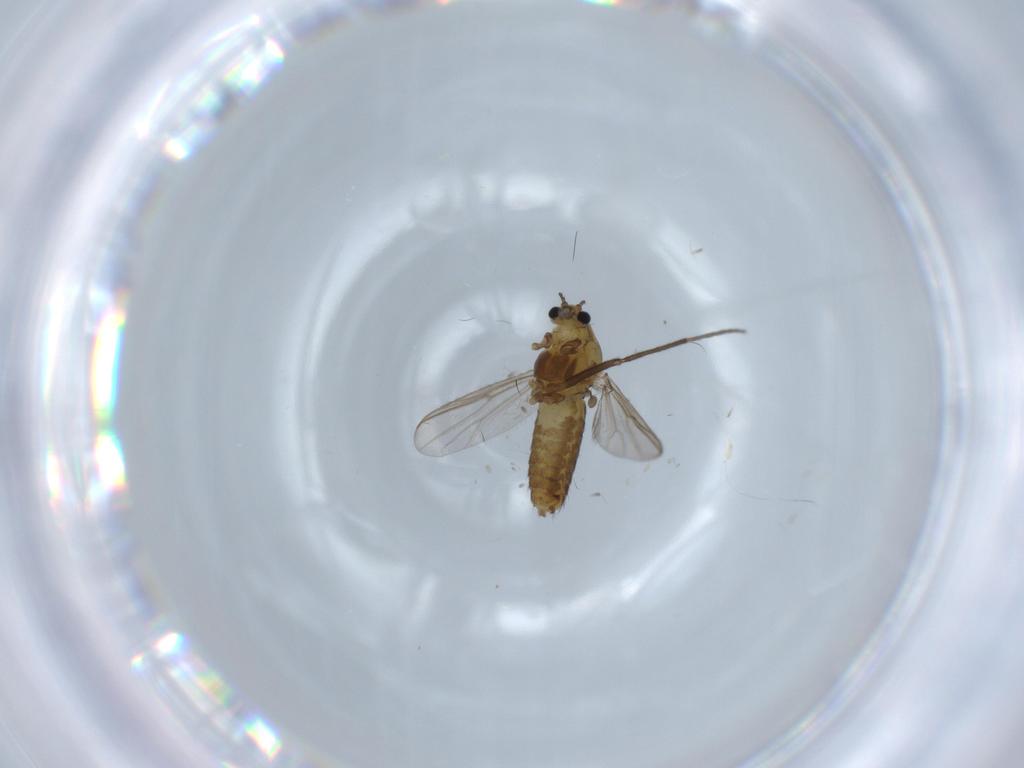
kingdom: Animalia
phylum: Arthropoda
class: Insecta
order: Diptera
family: Chironomidae
